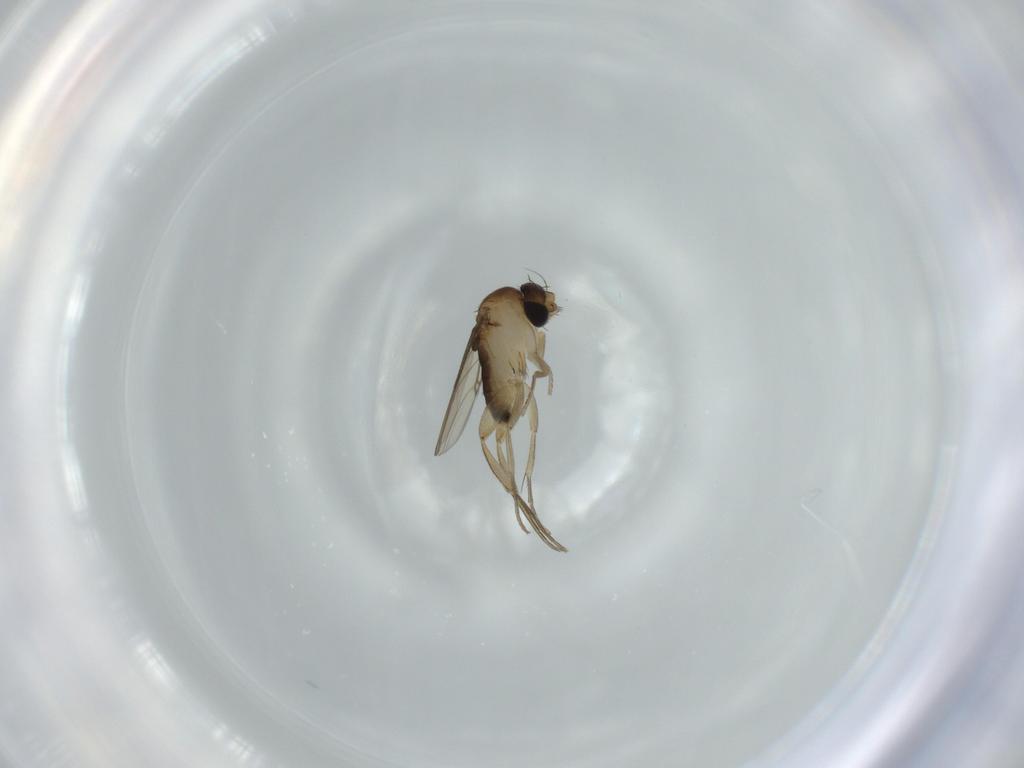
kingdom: Animalia
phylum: Arthropoda
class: Insecta
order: Diptera
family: Phoridae
